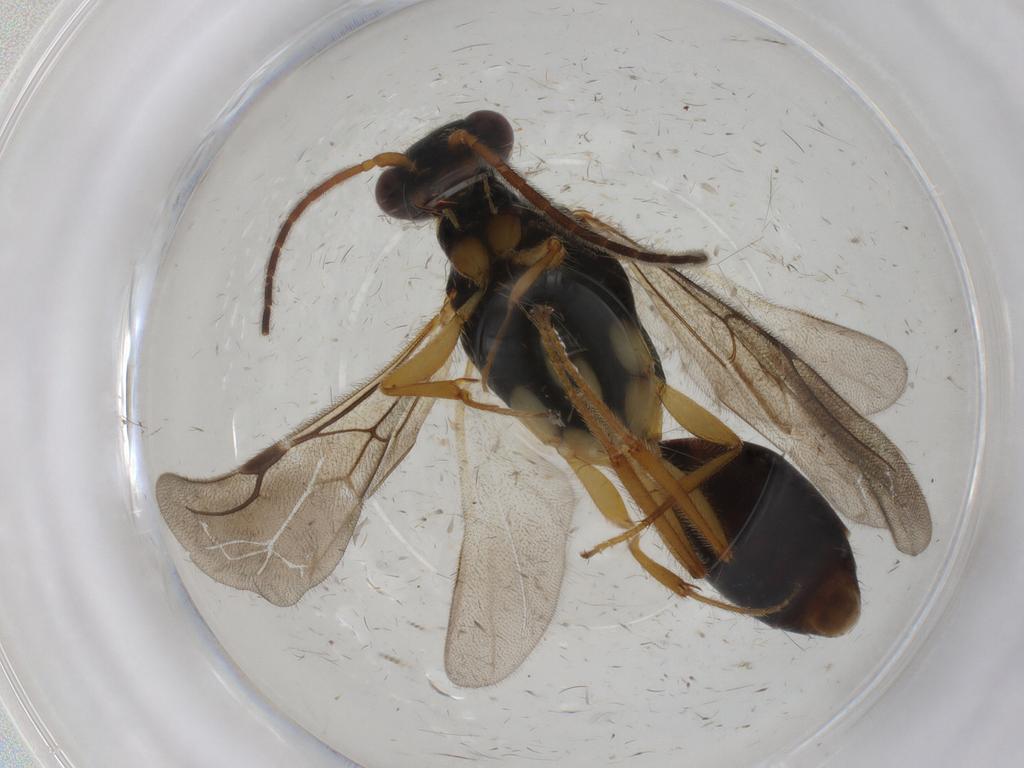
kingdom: Animalia
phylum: Arthropoda
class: Insecta
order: Hymenoptera
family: Bethylidae
